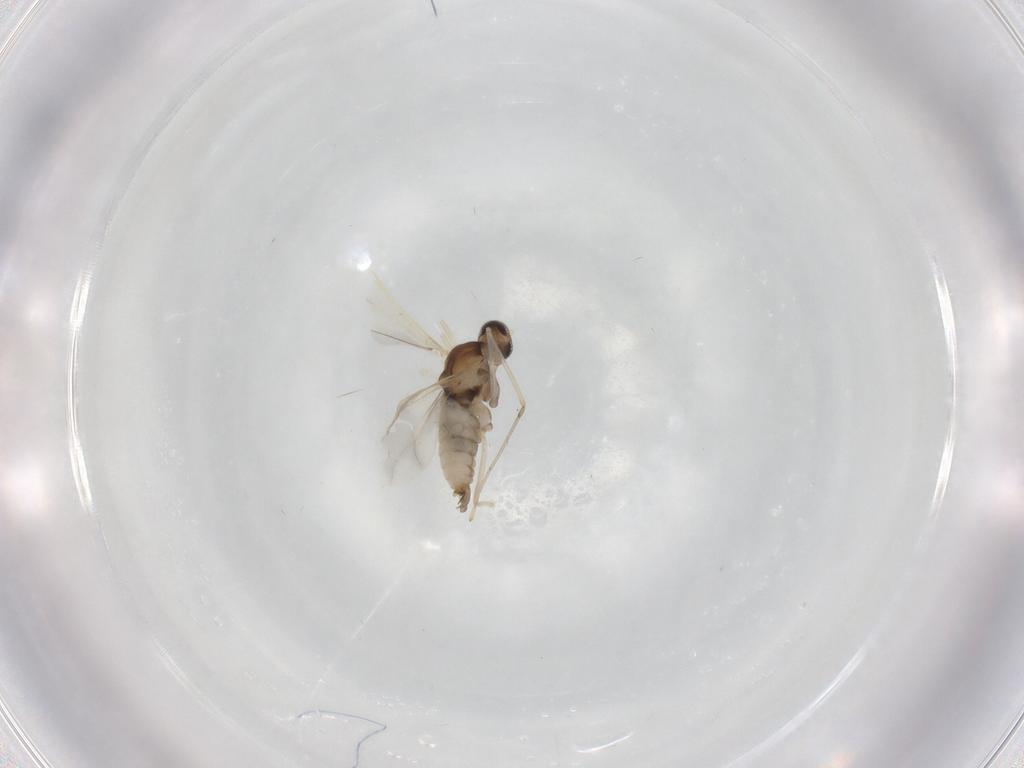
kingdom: Animalia
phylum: Arthropoda
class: Insecta
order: Diptera
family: Cecidomyiidae
